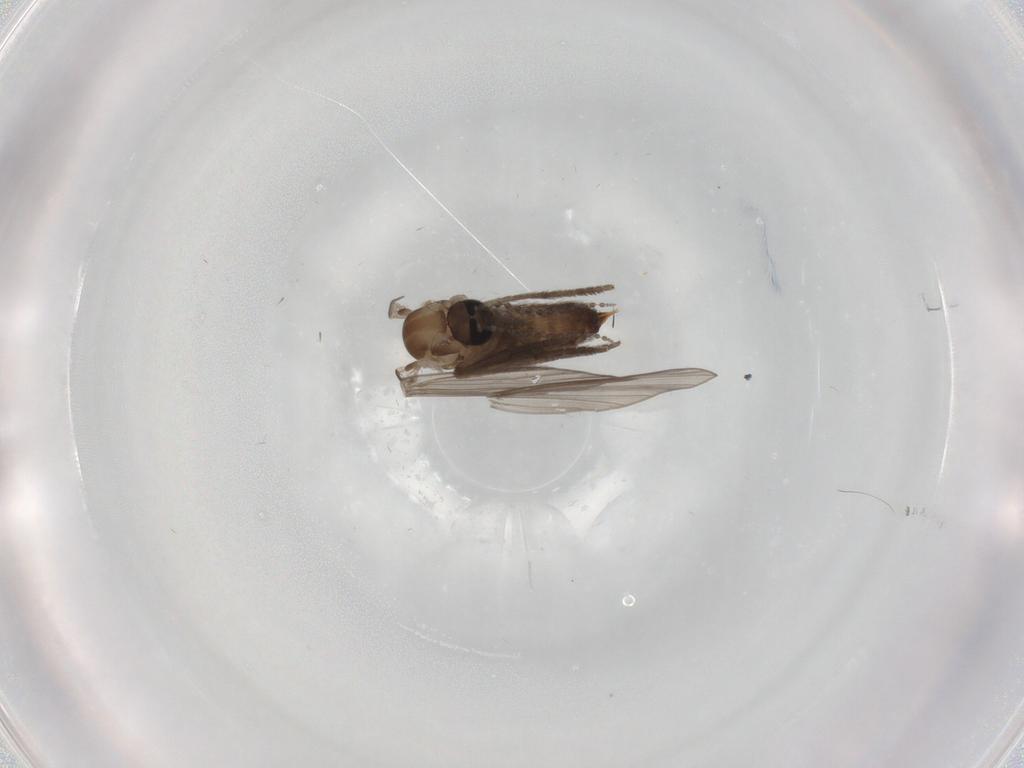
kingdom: Animalia
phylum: Arthropoda
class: Insecta
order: Diptera
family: Psychodidae
